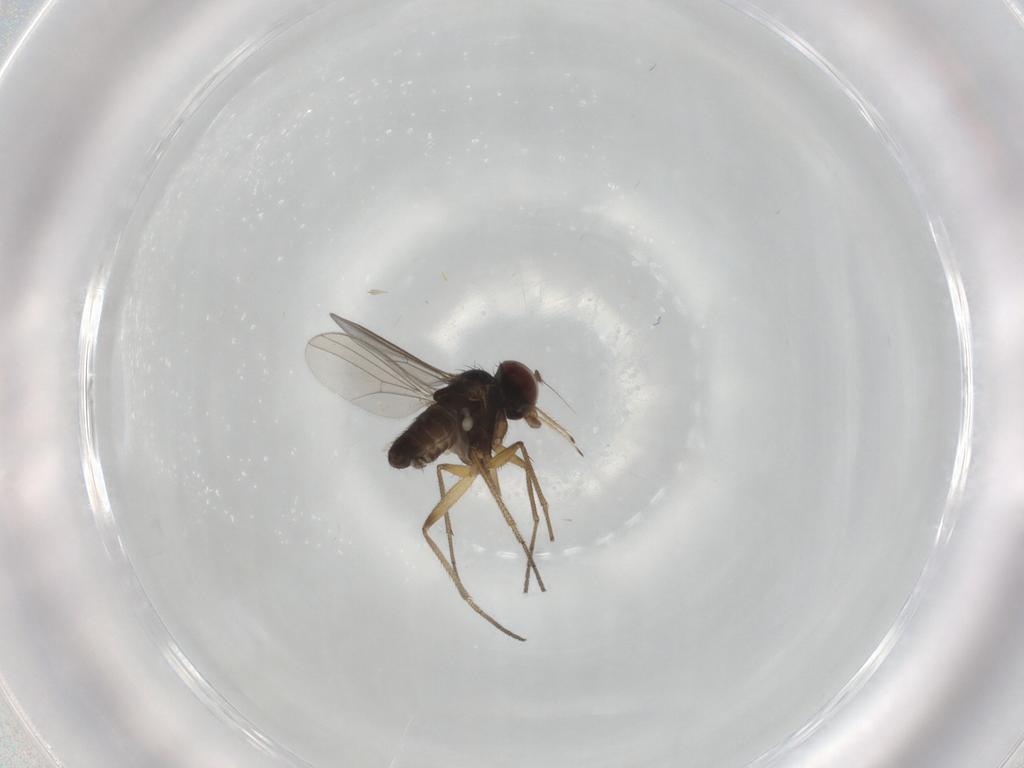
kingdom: Animalia
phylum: Arthropoda
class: Insecta
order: Diptera
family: Dolichopodidae
